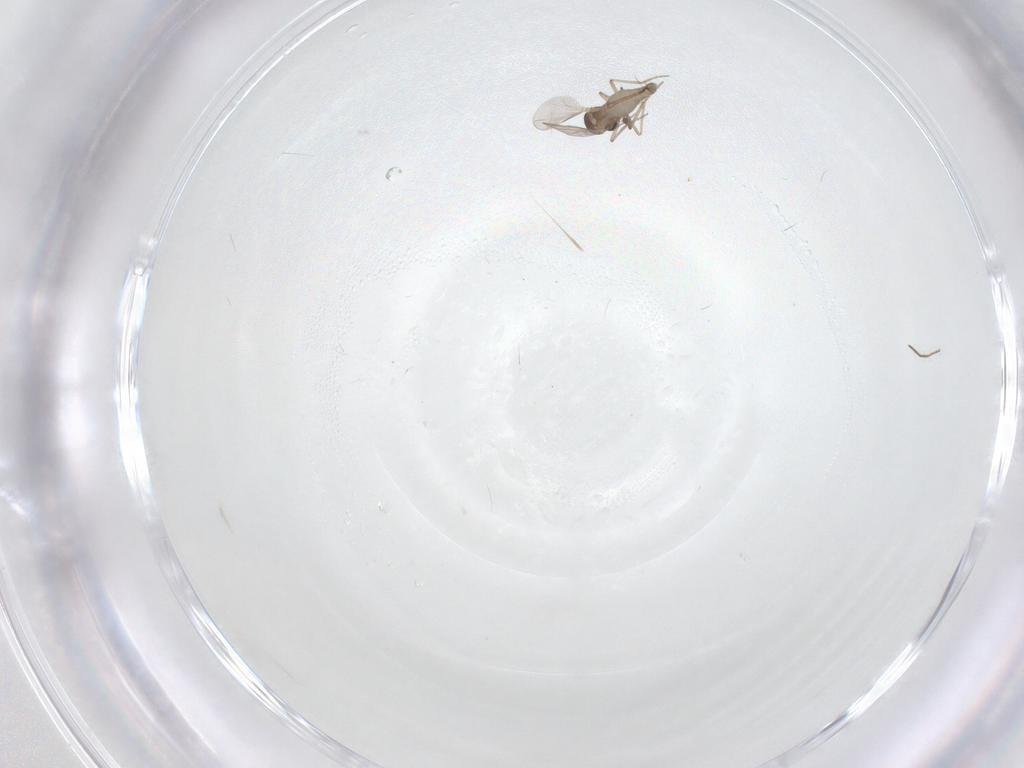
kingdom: Animalia
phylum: Arthropoda
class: Insecta
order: Diptera
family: Chironomidae
